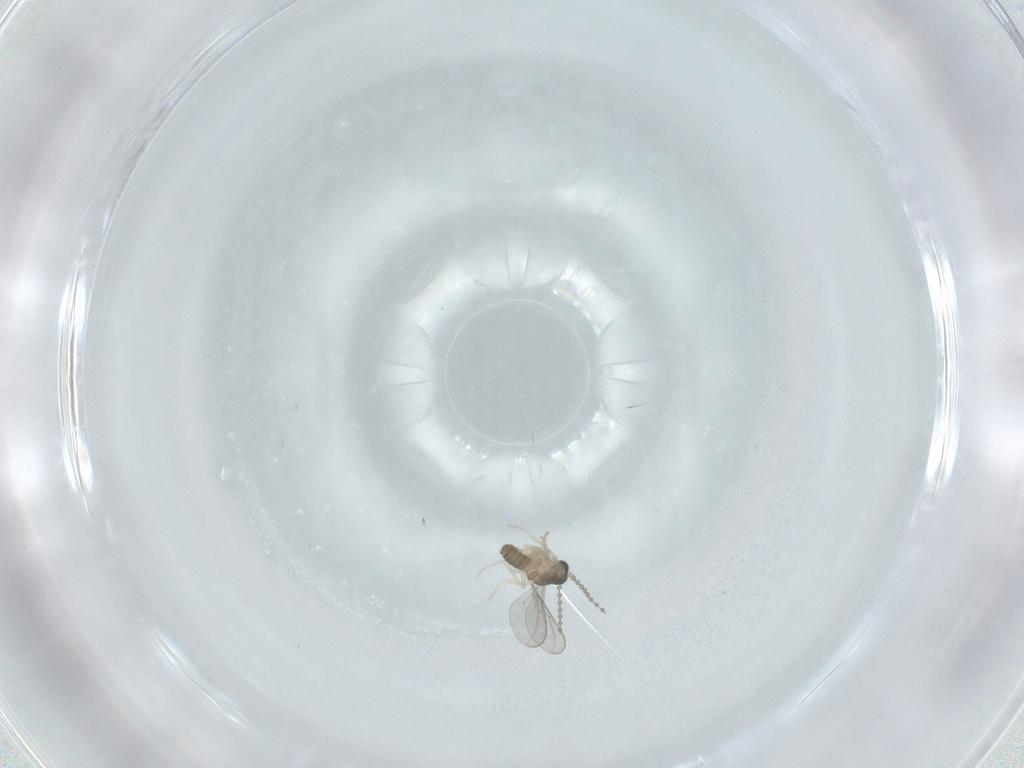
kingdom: Animalia
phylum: Arthropoda
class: Insecta
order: Diptera
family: Cecidomyiidae
